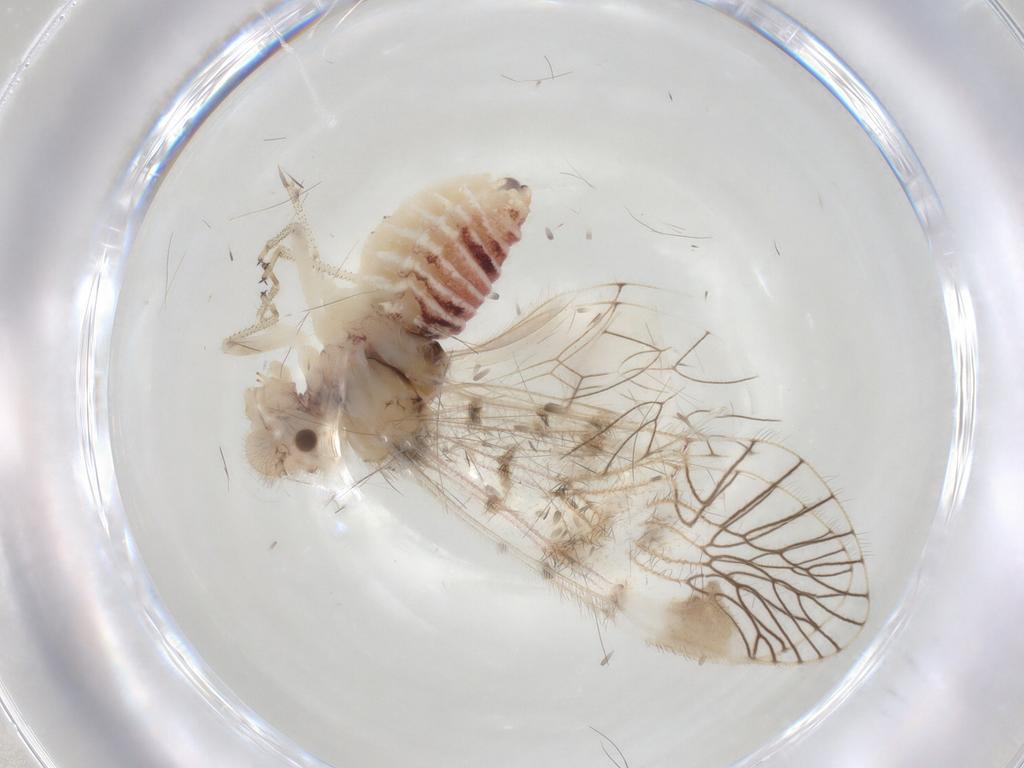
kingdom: Animalia
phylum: Arthropoda
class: Insecta
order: Psocodea
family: Amphipsocidae
